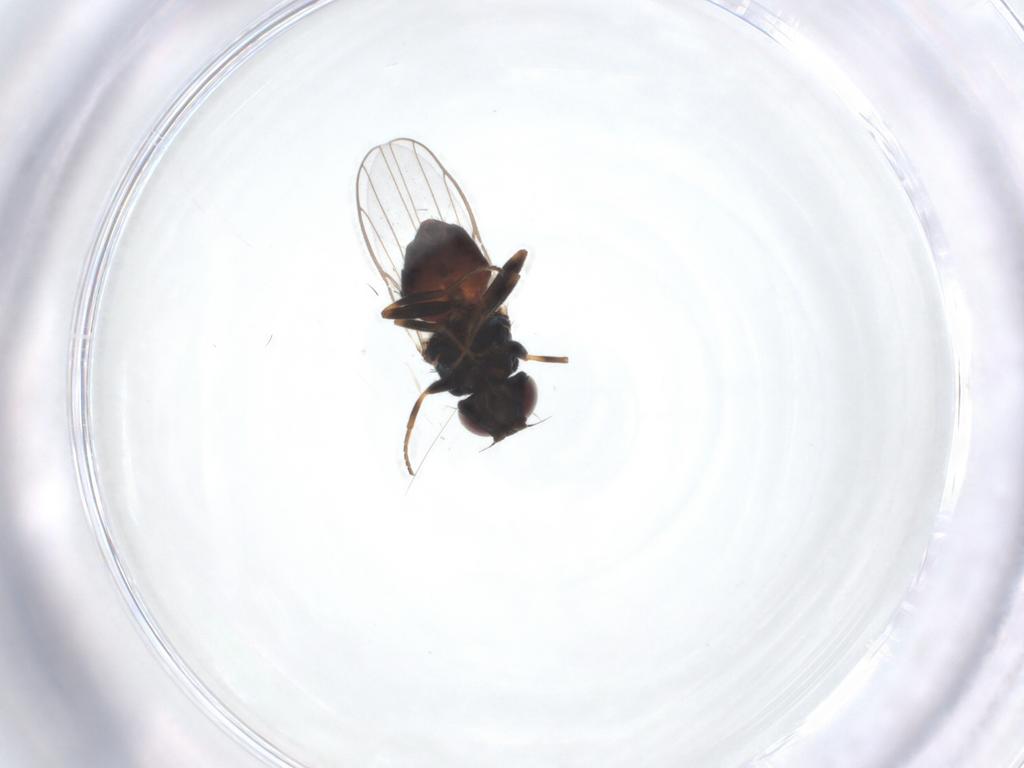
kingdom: Animalia
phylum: Arthropoda
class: Insecta
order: Diptera
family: Chloropidae
